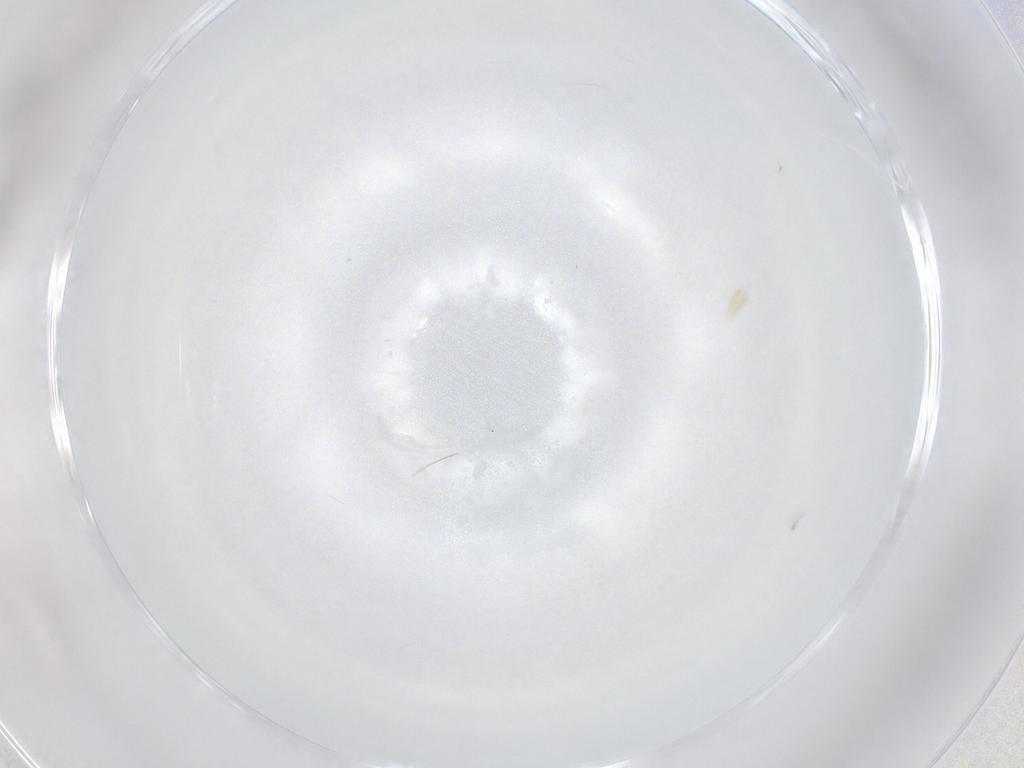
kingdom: Animalia
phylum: Arthropoda
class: Arachnida
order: Trombidiformes
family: Eupodidae
